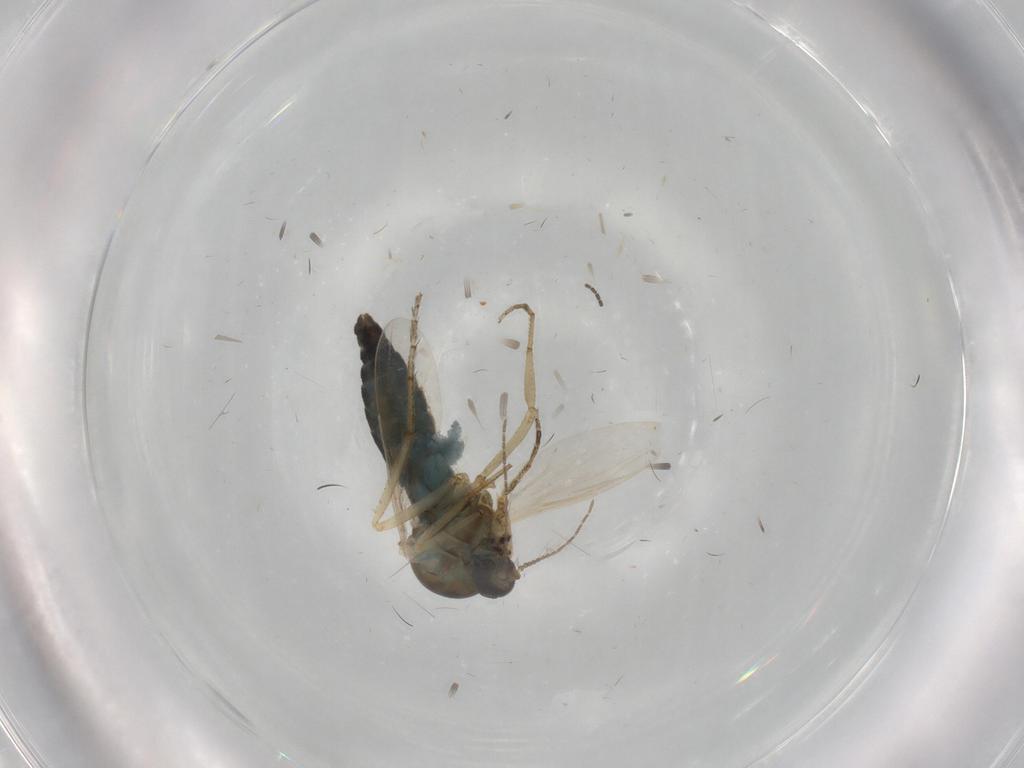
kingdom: Animalia
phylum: Arthropoda
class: Insecta
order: Diptera
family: Ceratopogonidae
